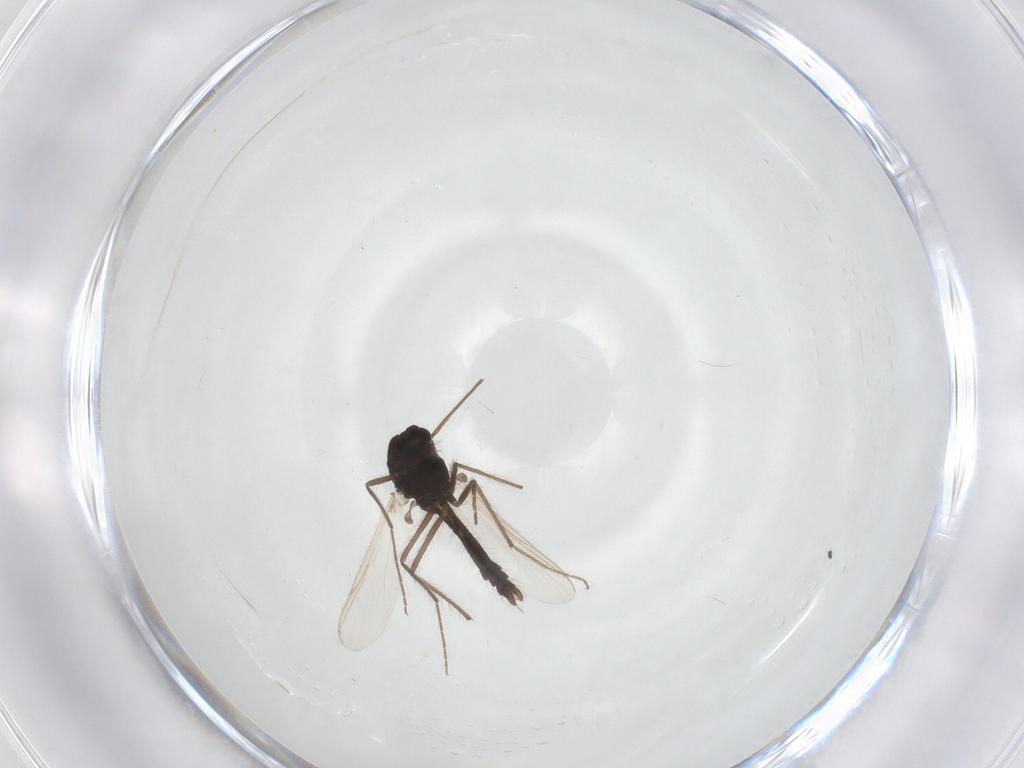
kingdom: Animalia
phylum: Arthropoda
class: Insecta
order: Diptera
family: Chironomidae
